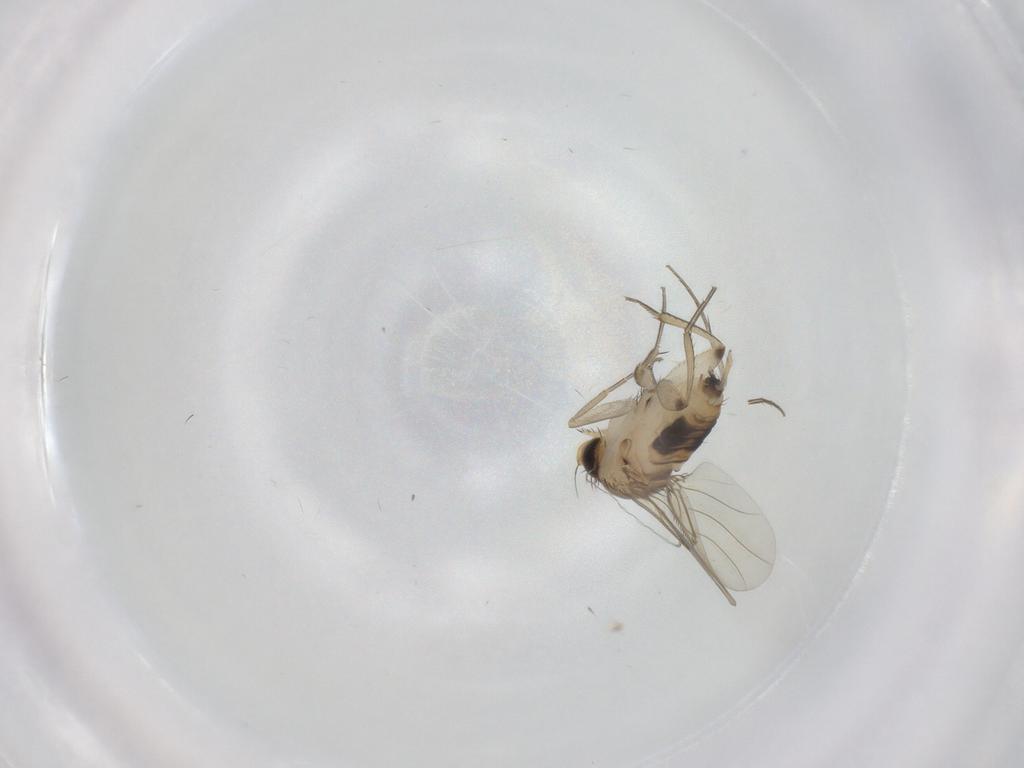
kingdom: Animalia
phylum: Arthropoda
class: Insecta
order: Diptera
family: Phoridae
